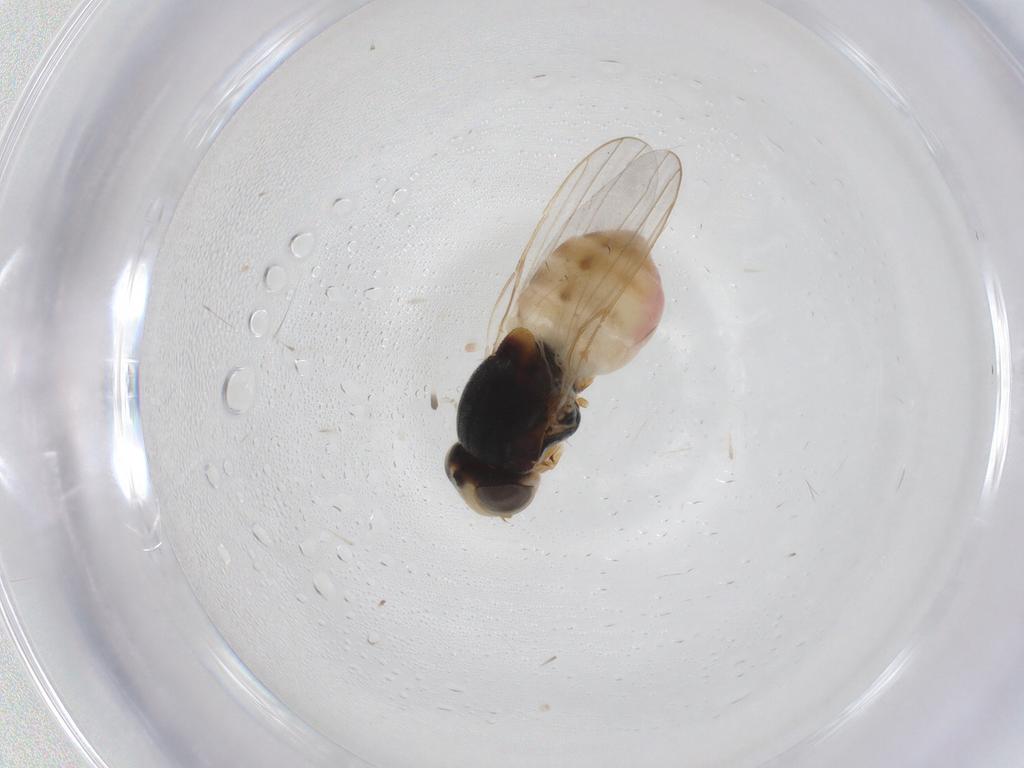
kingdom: Animalia
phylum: Arthropoda
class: Insecta
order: Diptera
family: Chloropidae
